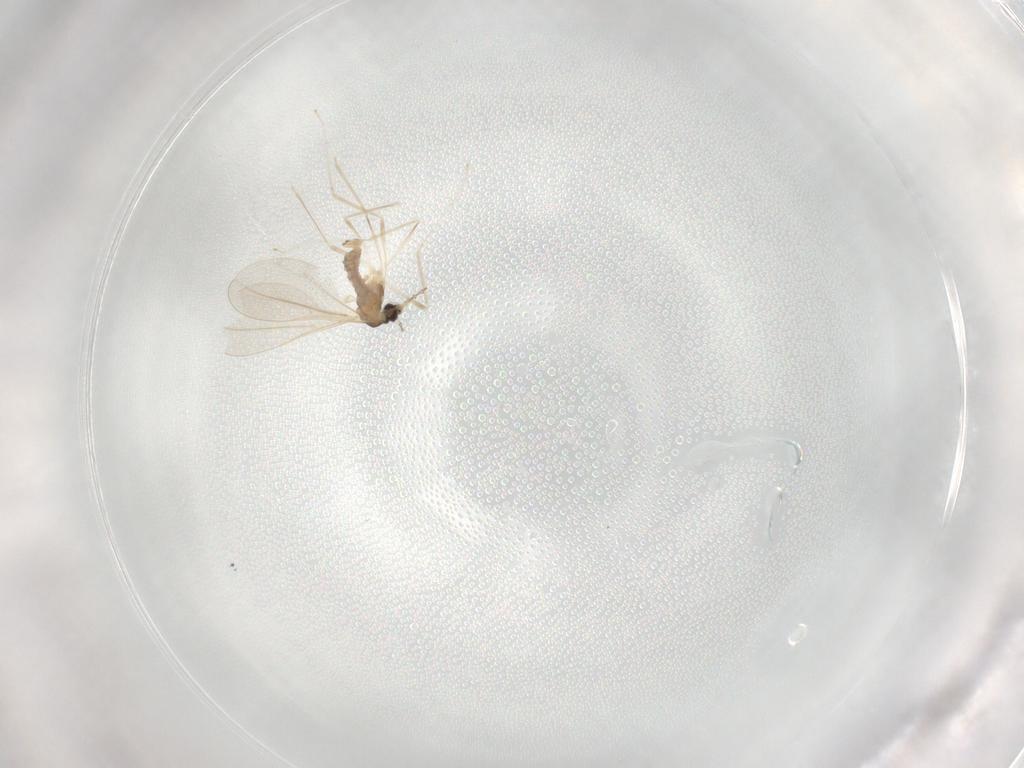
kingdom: Animalia
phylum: Arthropoda
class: Insecta
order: Diptera
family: Cecidomyiidae
